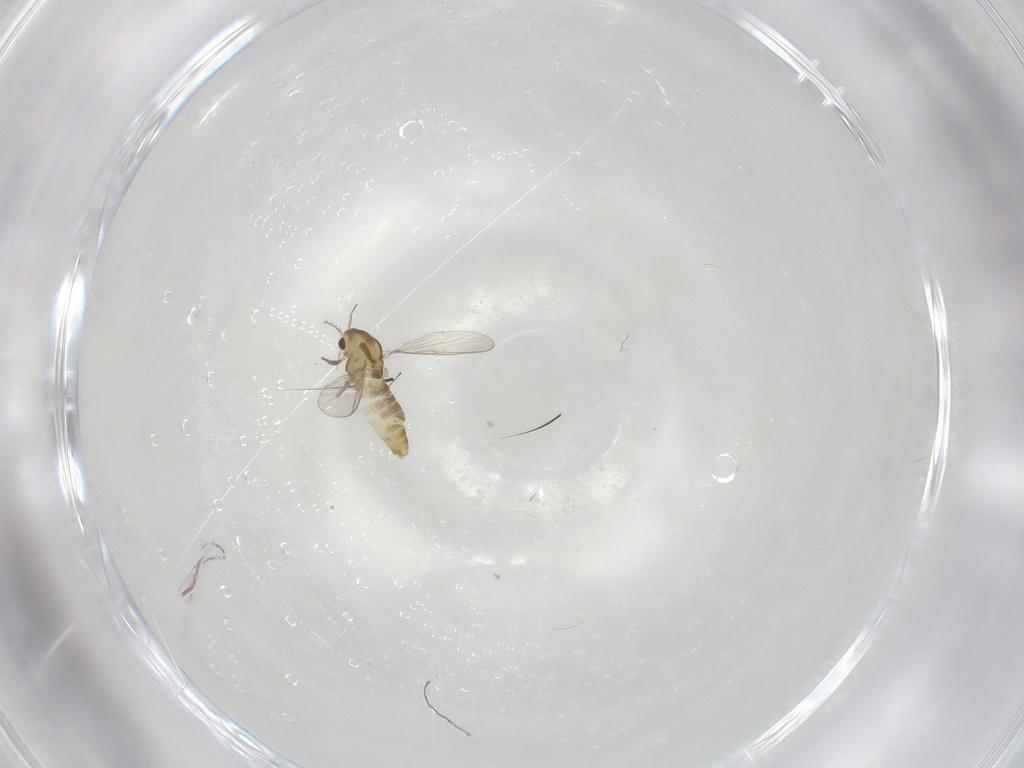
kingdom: Animalia
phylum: Arthropoda
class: Insecta
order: Diptera
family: Chironomidae
